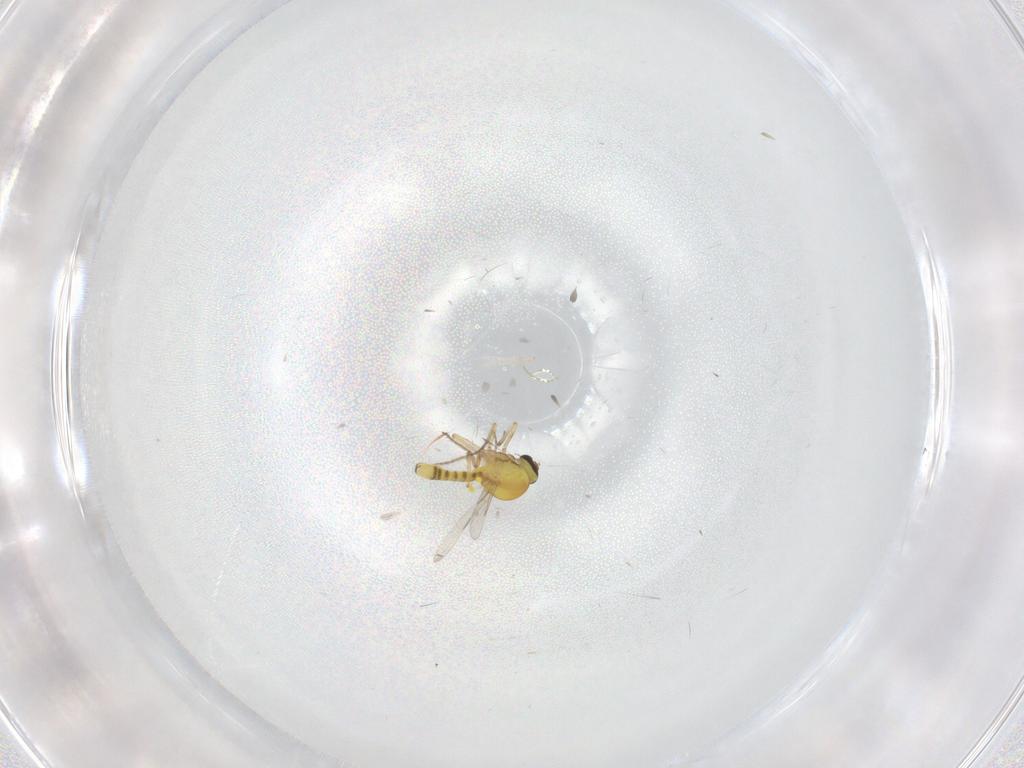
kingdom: Animalia
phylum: Arthropoda
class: Insecta
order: Diptera
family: Ceratopogonidae
